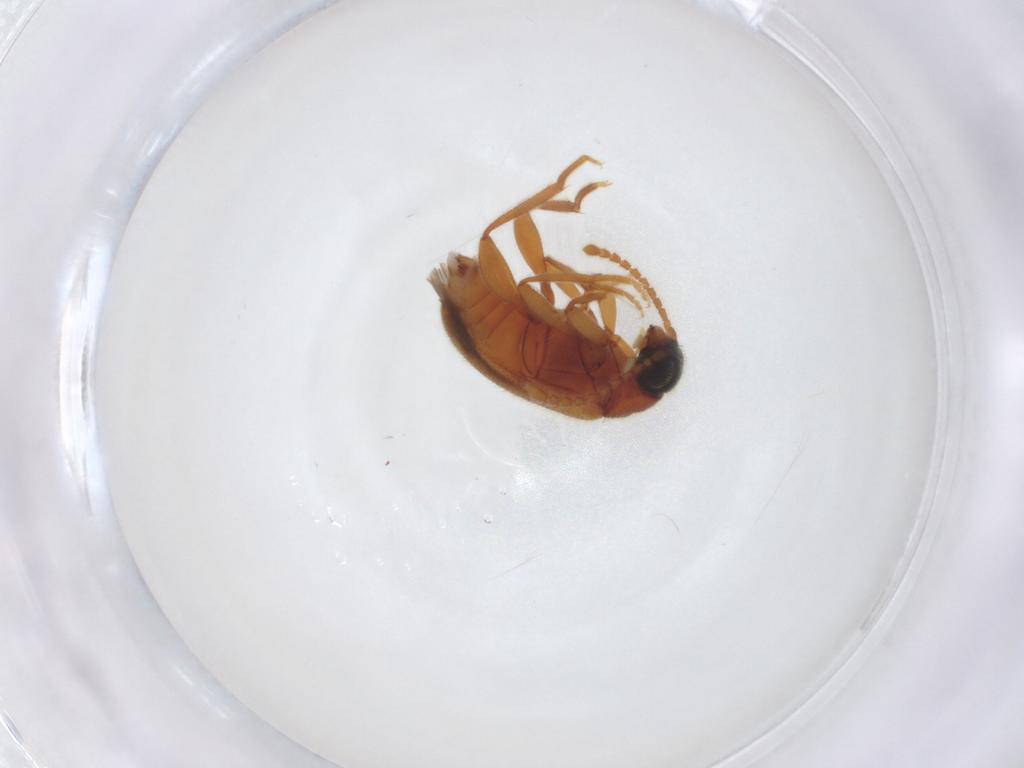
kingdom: Animalia
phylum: Arthropoda
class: Insecta
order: Coleoptera
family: Aderidae
